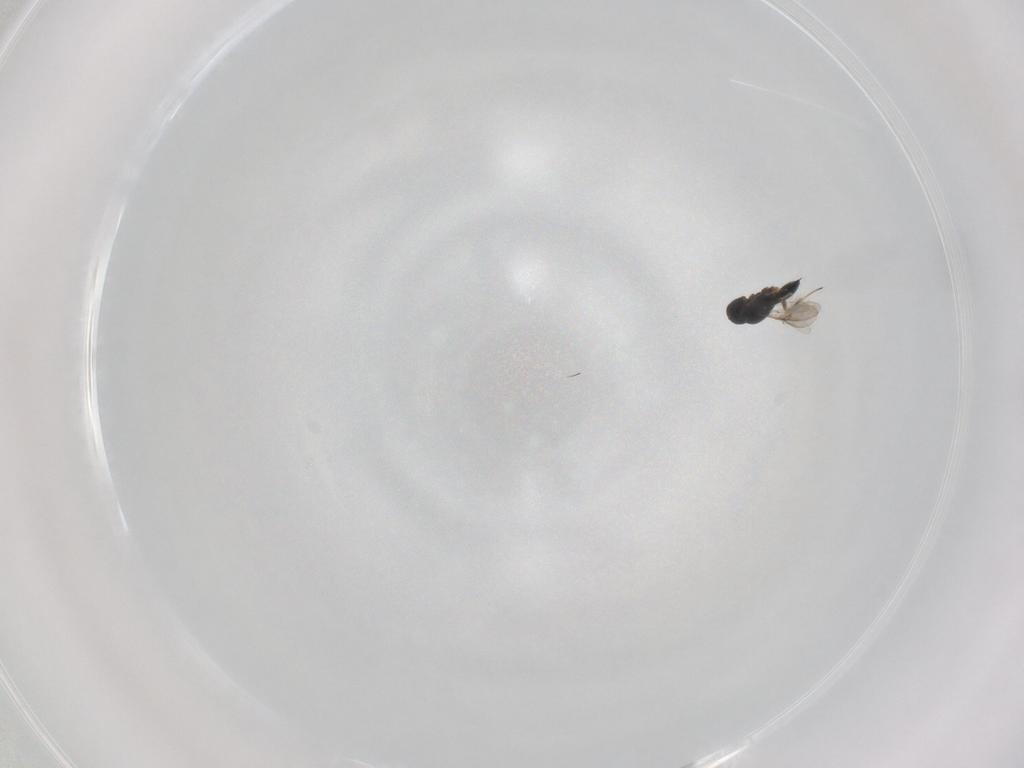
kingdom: Animalia
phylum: Arthropoda
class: Insecta
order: Hymenoptera
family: Scelionidae
